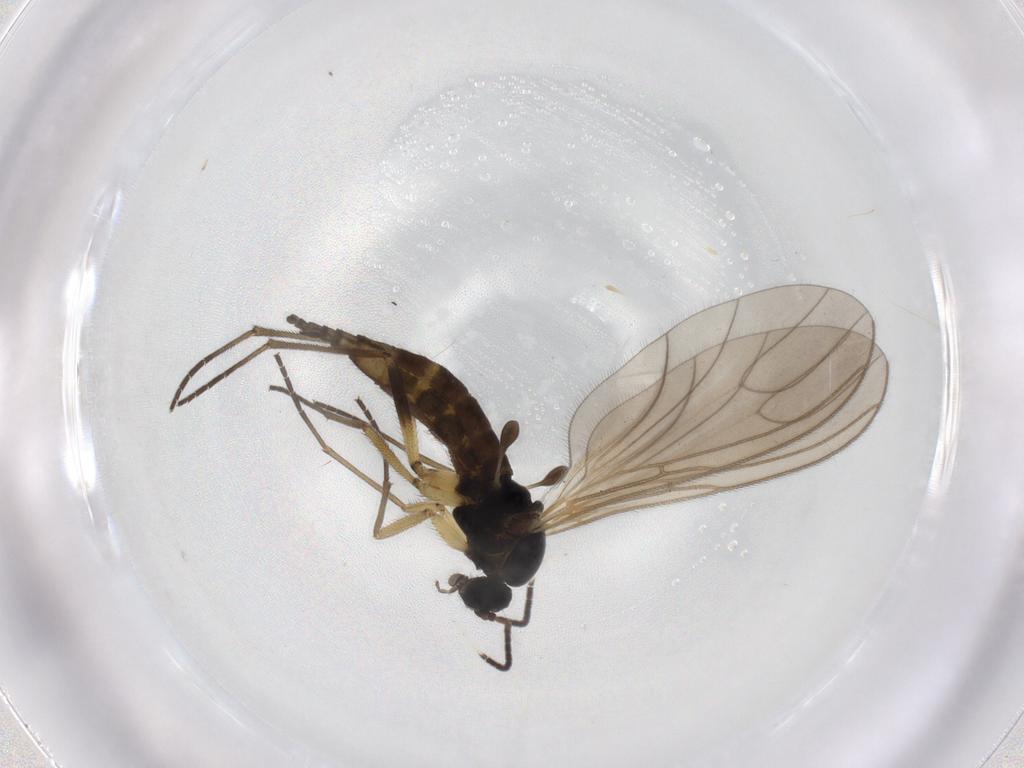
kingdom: Animalia
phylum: Arthropoda
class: Insecta
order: Diptera
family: Sciaridae
